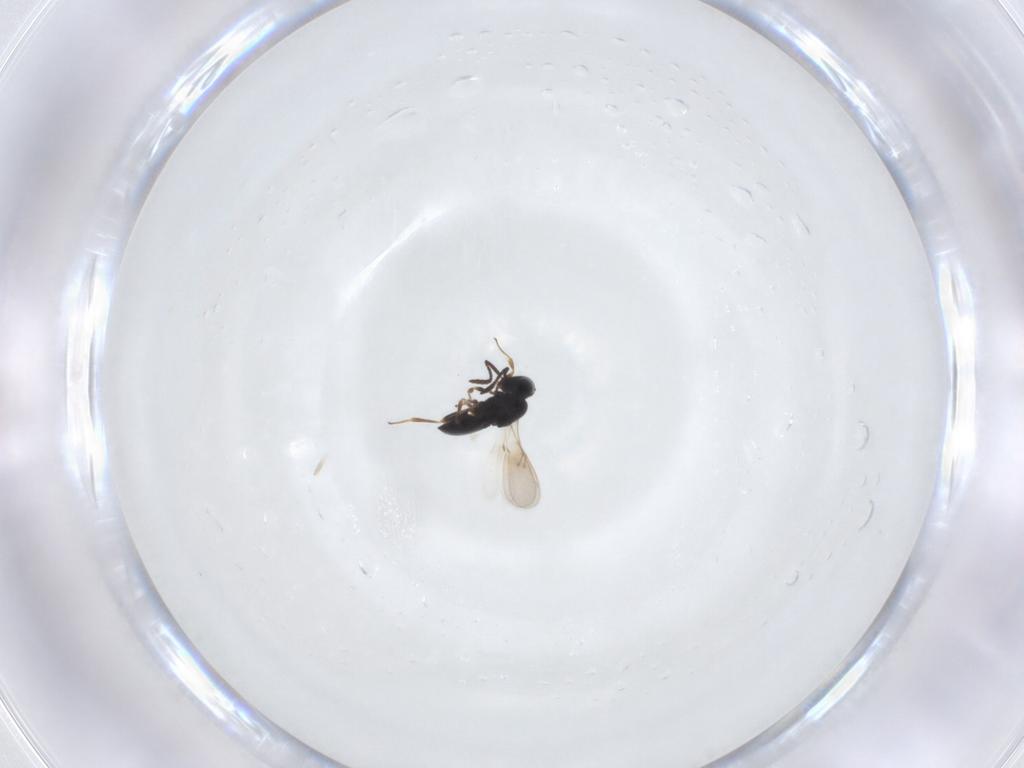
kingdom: Animalia
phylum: Arthropoda
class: Insecta
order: Hymenoptera
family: Scelionidae
